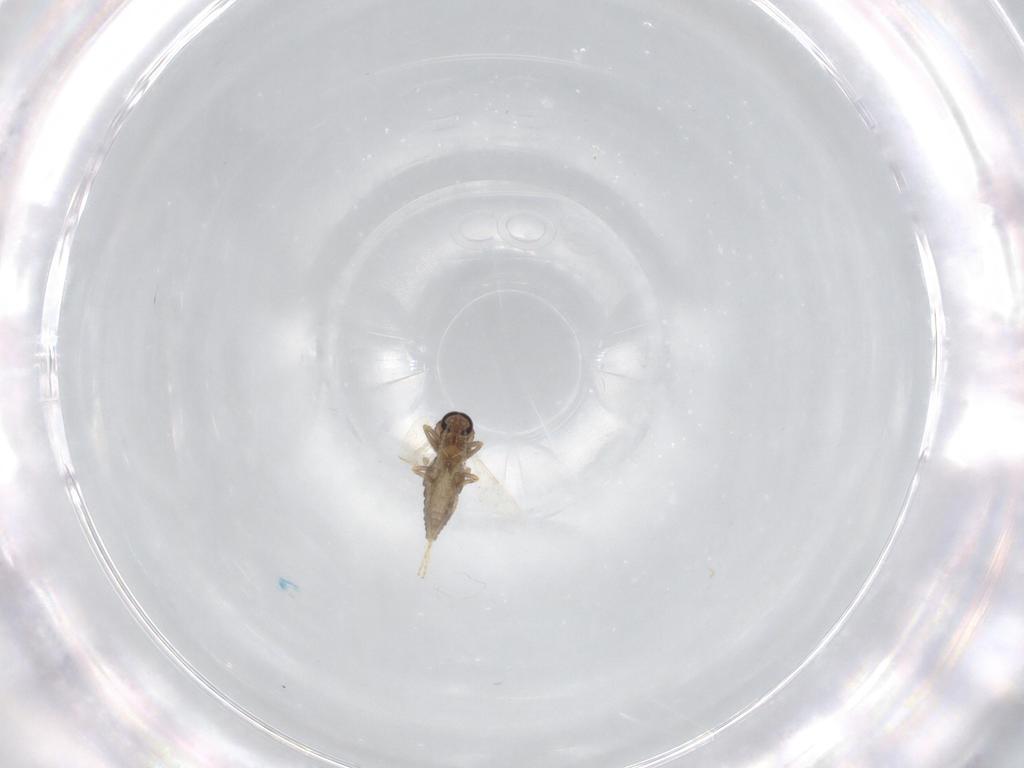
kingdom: Animalia
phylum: Arthropoda
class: Insecta
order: Diptera
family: Ceratopogonidae
